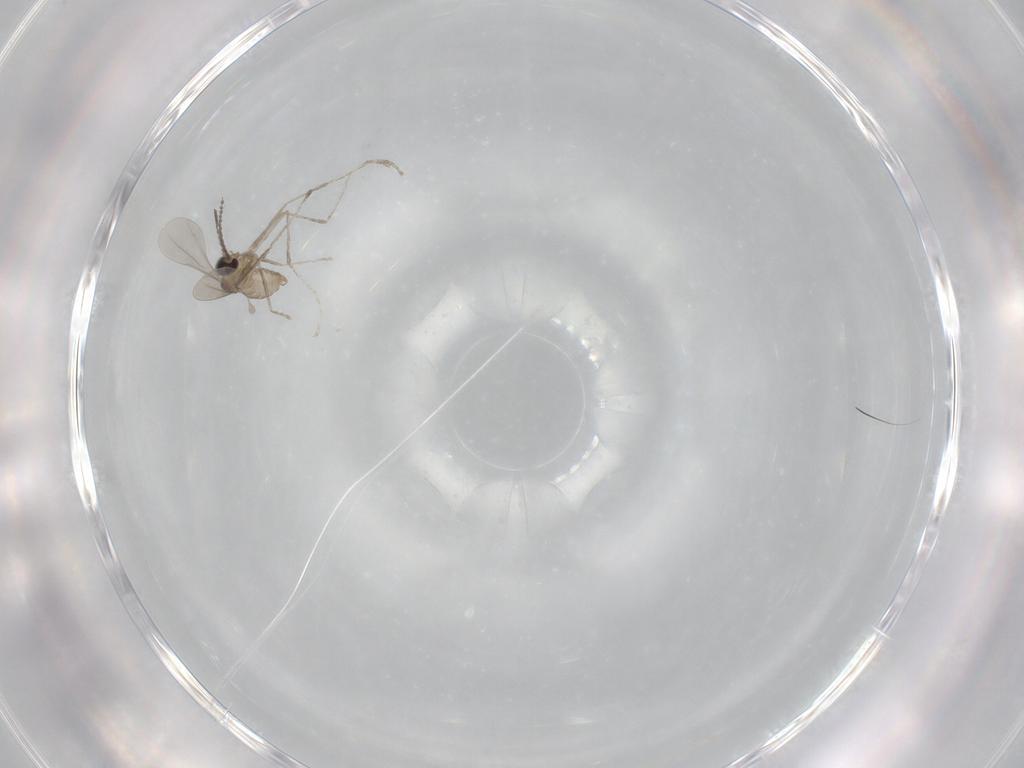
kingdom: Animalia
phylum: Arthropoda
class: Insecta
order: Diptera
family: Cecidomyiidae
